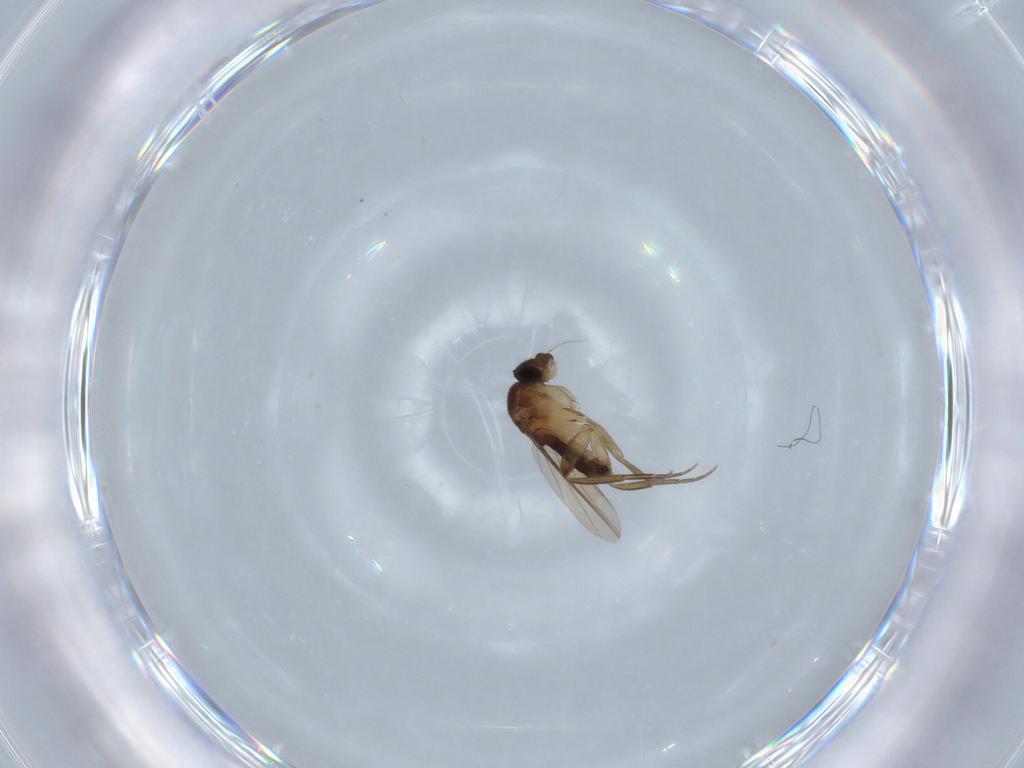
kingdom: Animalia
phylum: Arthropoda
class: Insecta
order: Diptera
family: Phoridae
